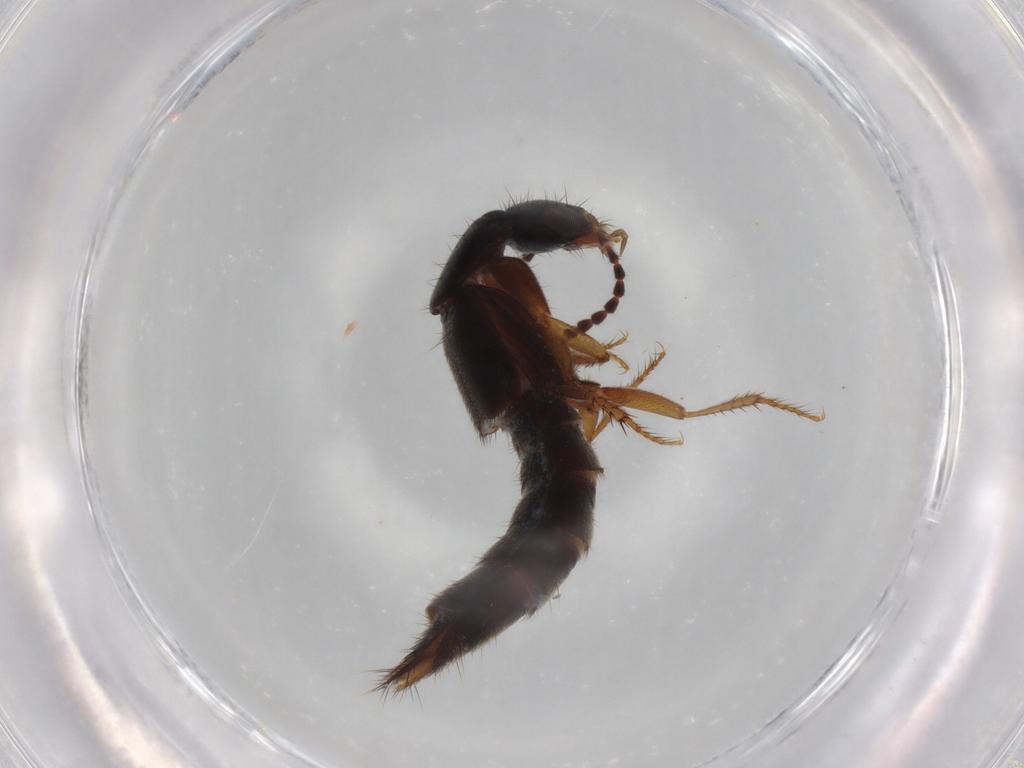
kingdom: Animalia
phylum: Arthropoda
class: Insecta
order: Coleoptera
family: Staphylinidae
